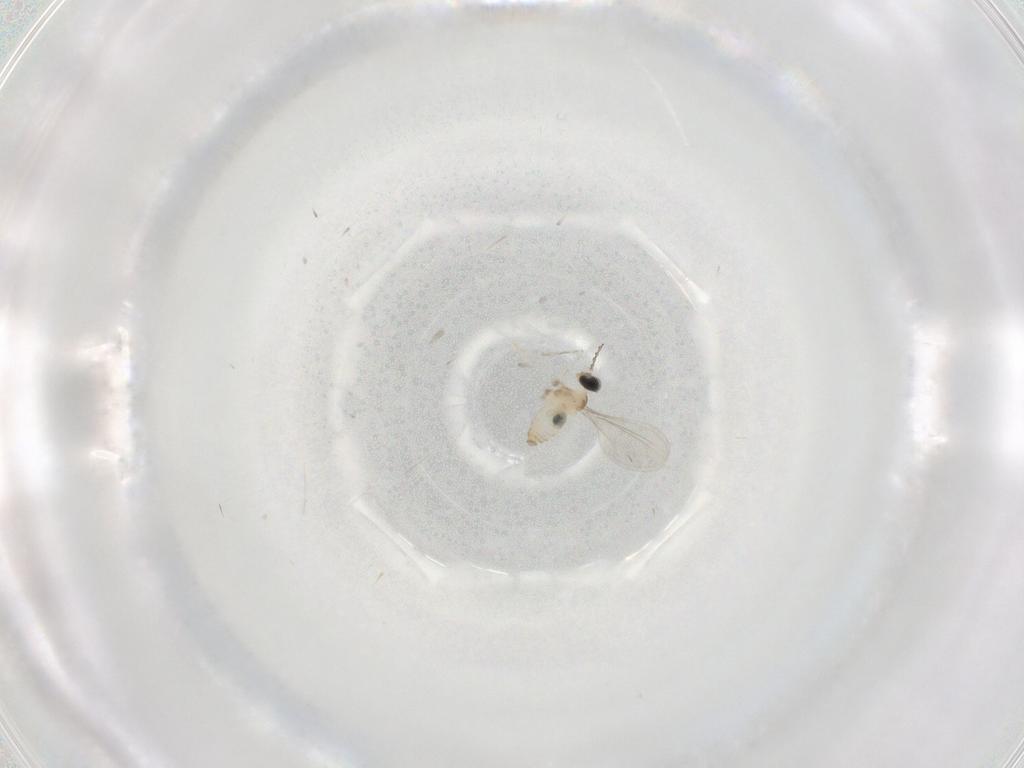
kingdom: Animalia
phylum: Arthropoda
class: Insecta
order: Diptera
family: Cecidomyiidae
